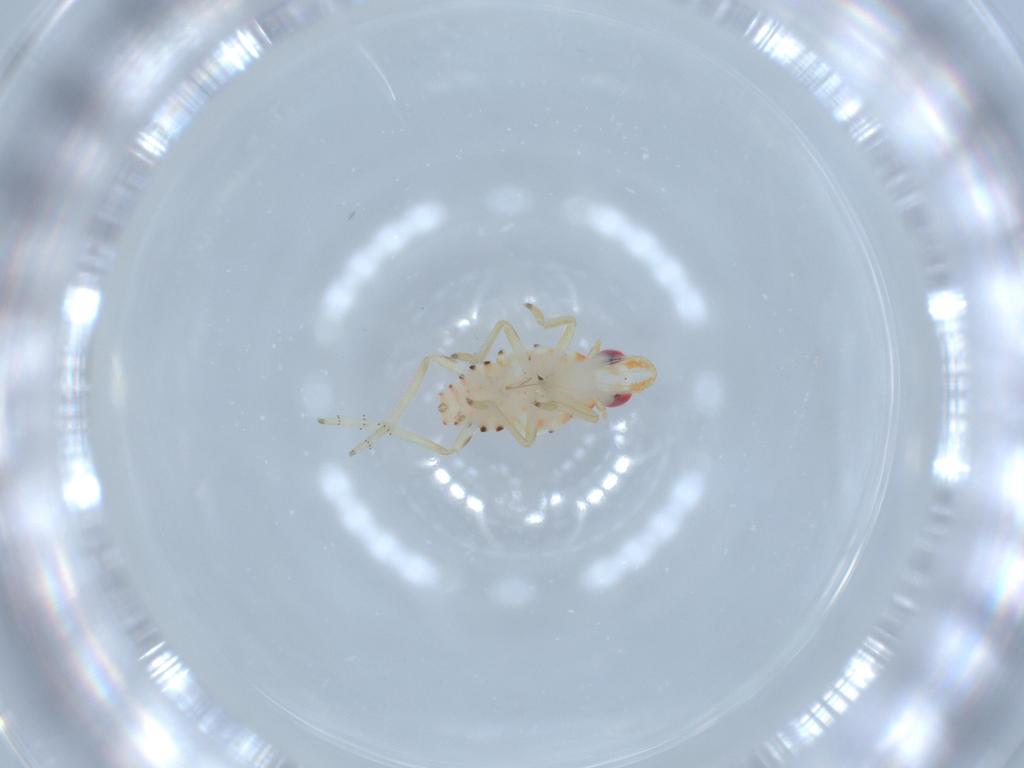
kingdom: Animalia
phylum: Arthropoda
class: Insecta
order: Hemiptera
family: Tropiduchidae
